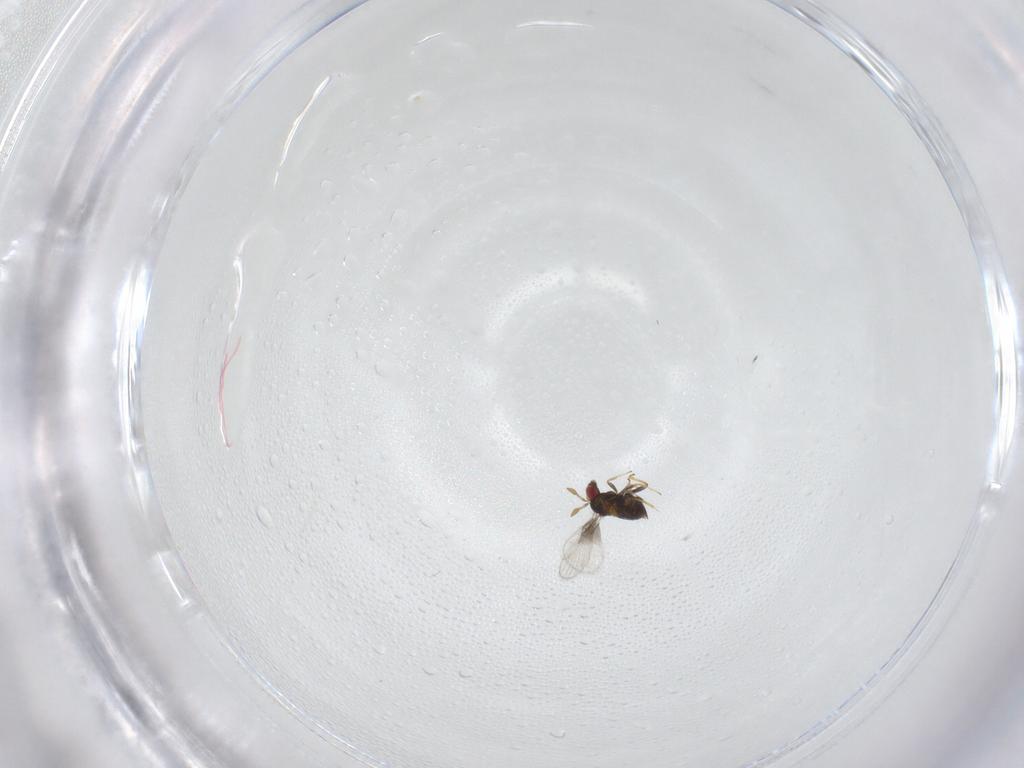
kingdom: Animalia
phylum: Arthropoda
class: Insecta
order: Hymenoptera
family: Trichogrammatidae
